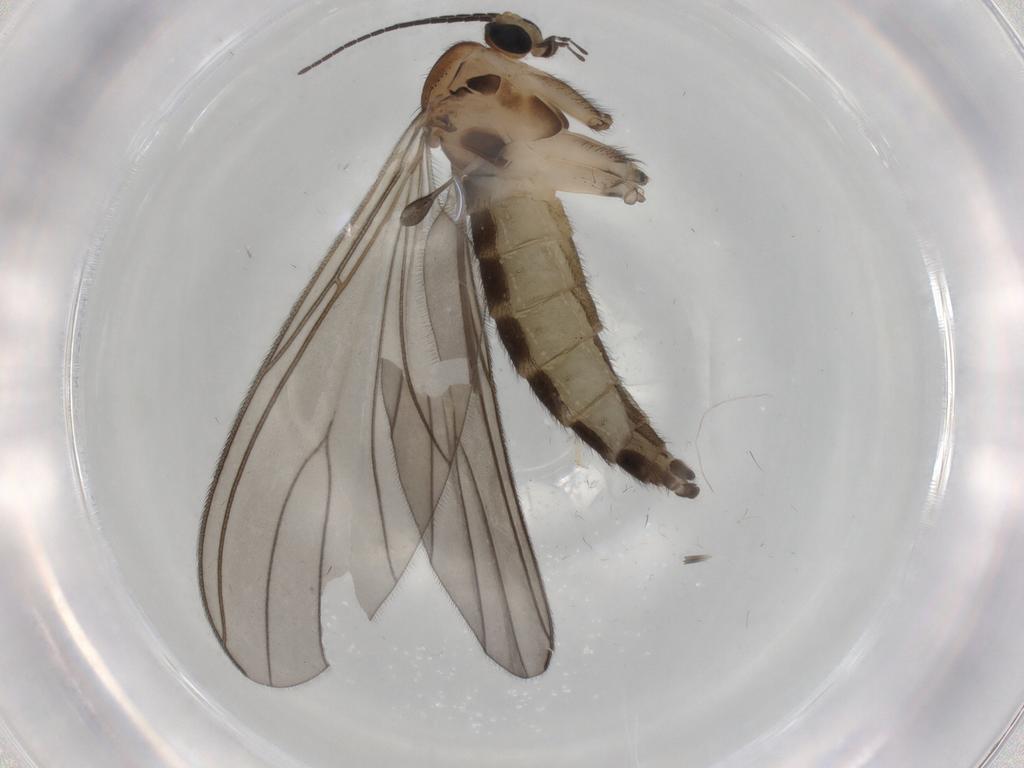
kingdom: Animalia
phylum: Arthropoda
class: Insecta
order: Diptera
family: Sciaridae
